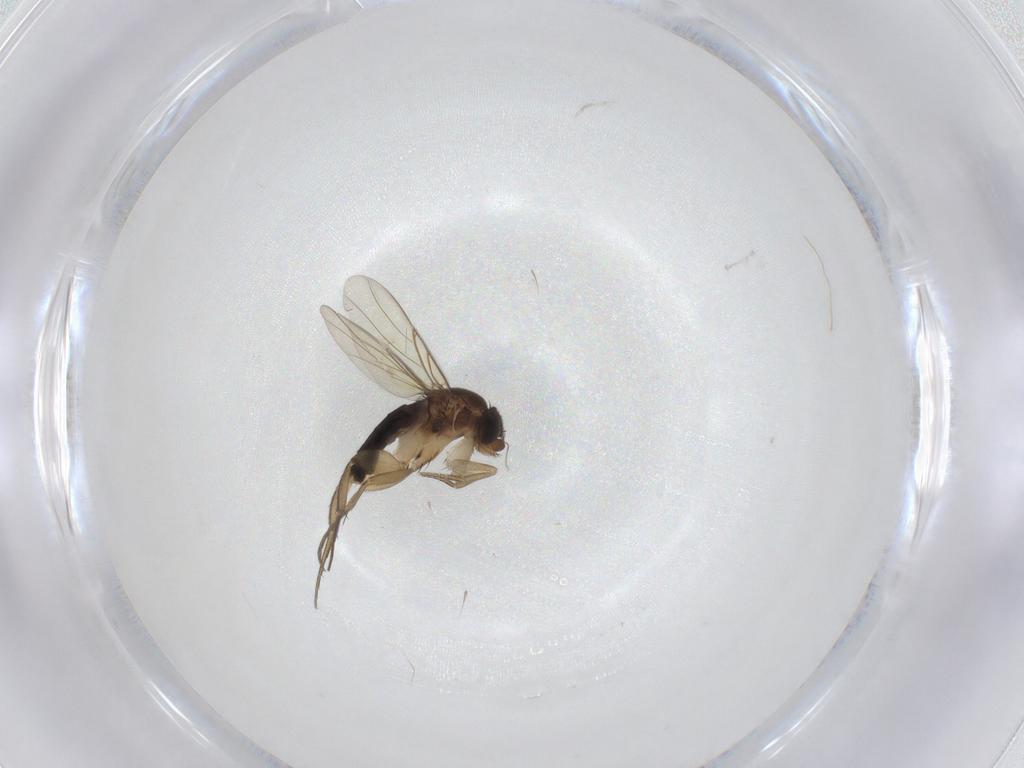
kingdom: Animalia
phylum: Arthropoda
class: Insecta
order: Diptera
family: Phoridae
